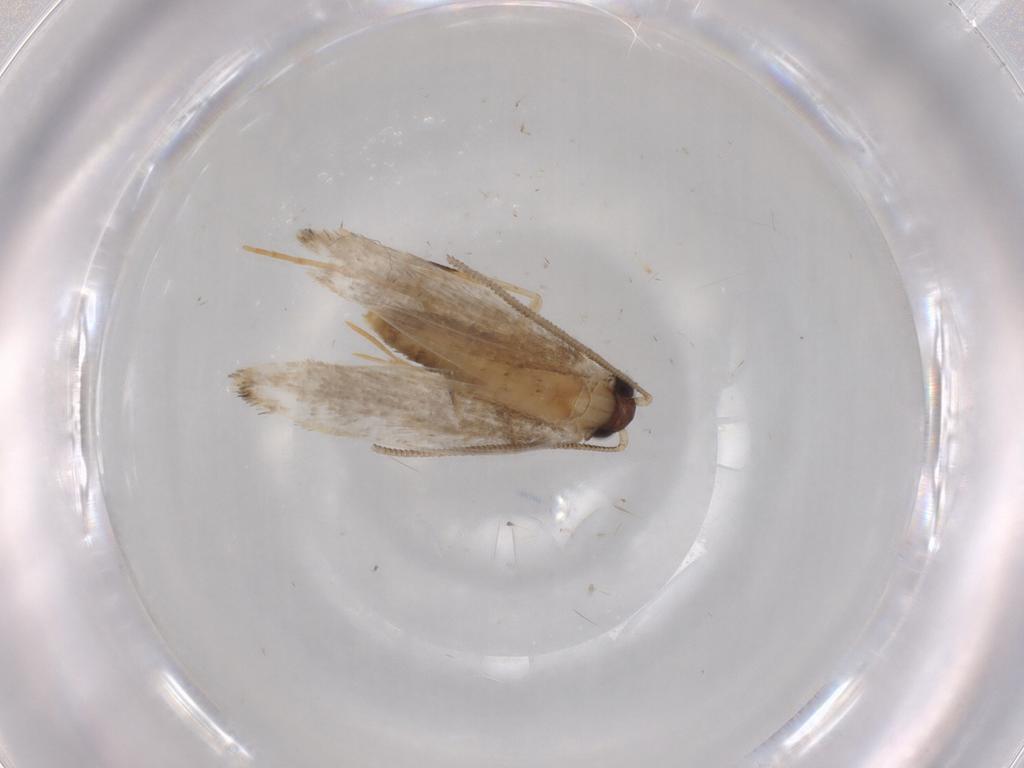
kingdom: Animalia
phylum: Arthropoda
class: Insecta
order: Lepidoptera
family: Tineidae
